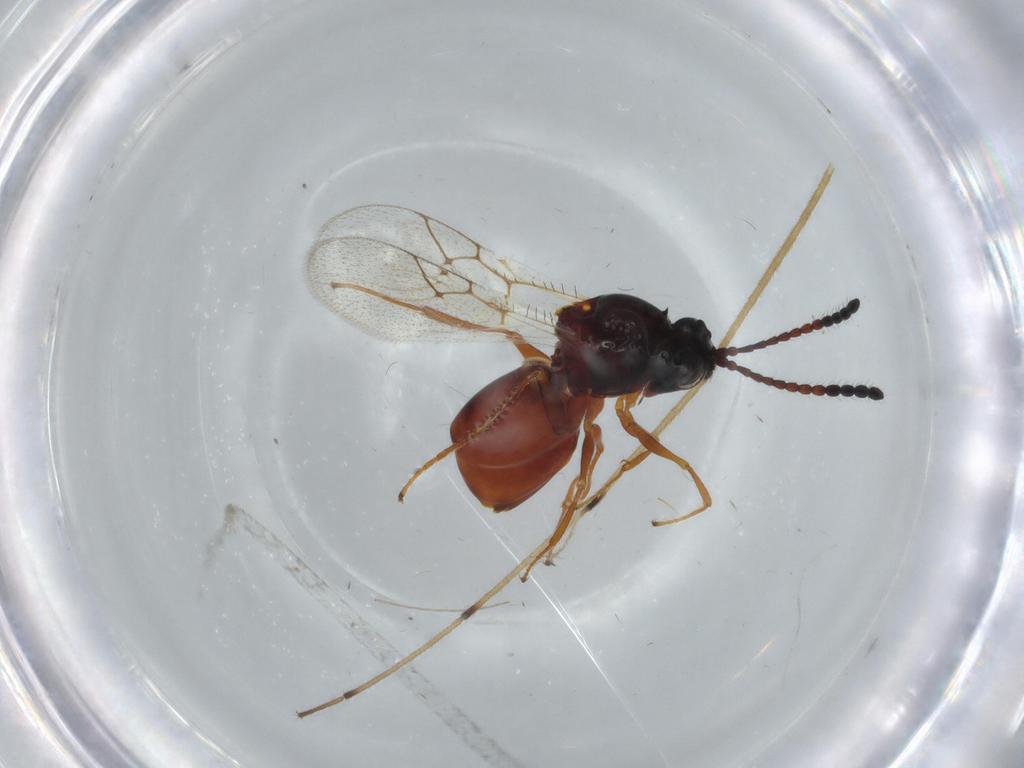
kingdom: Animalia
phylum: Arthropoda
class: Insecta
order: Hymenoptera
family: Figitidae
